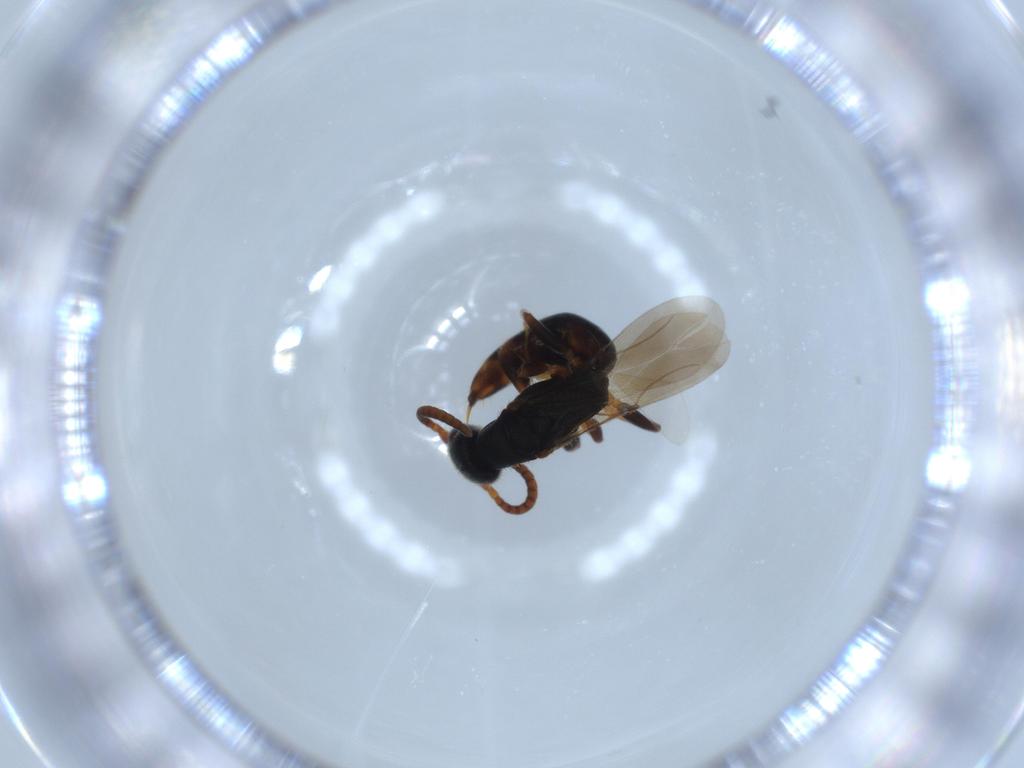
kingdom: Animalia
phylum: Arthropoda
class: Insecta
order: Hymenoptera
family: Bethylidae
